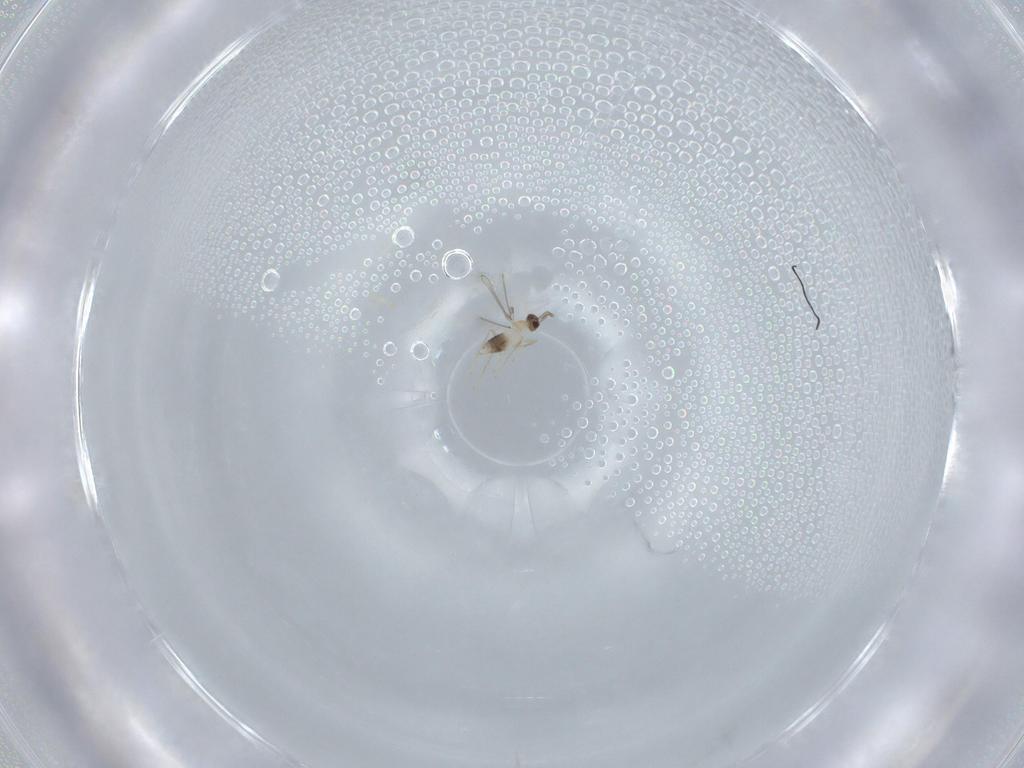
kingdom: Animalia
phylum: Arthropoda
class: Insecta
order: Hymenoptera
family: Mymaridae
